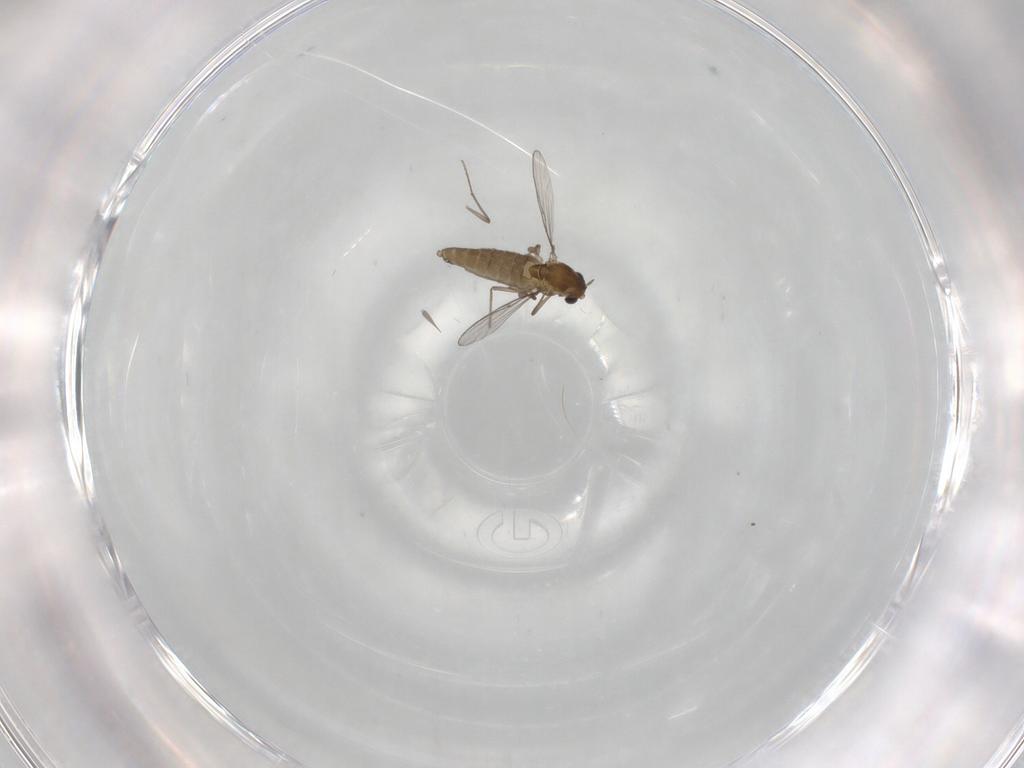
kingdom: Animalia
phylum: Arthropoda
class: Insecta
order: Diptera
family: Chironomidae
